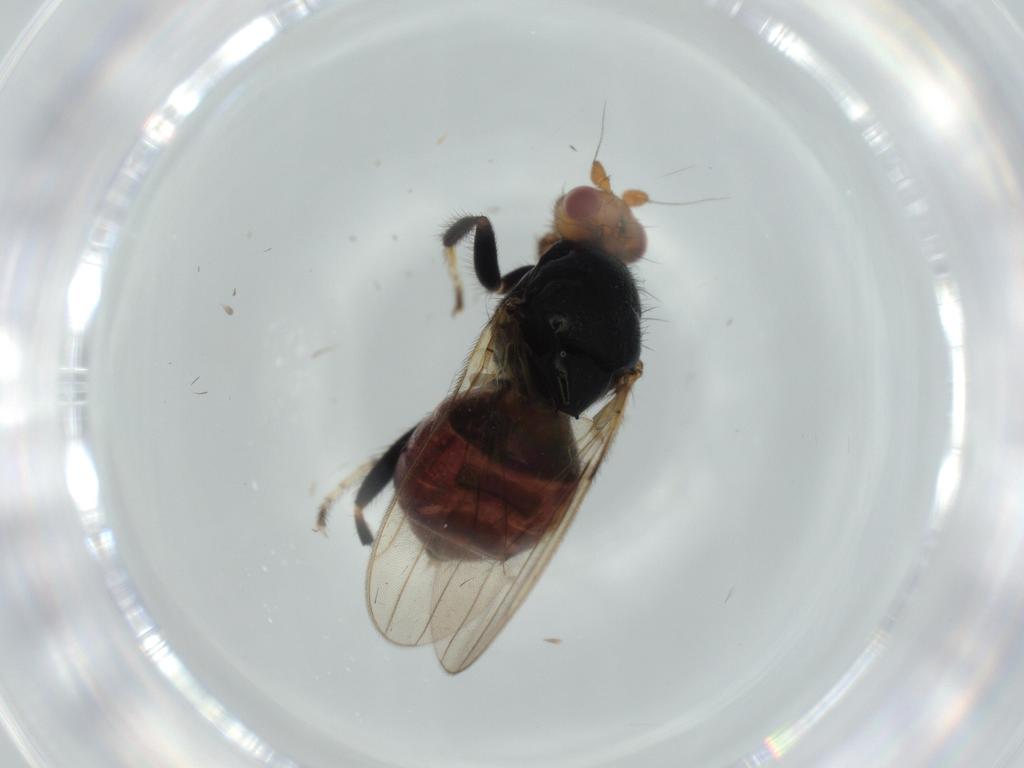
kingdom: Animalia
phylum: Arthropoda
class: Insecta
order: Diptera
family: Sphaeroceridae
